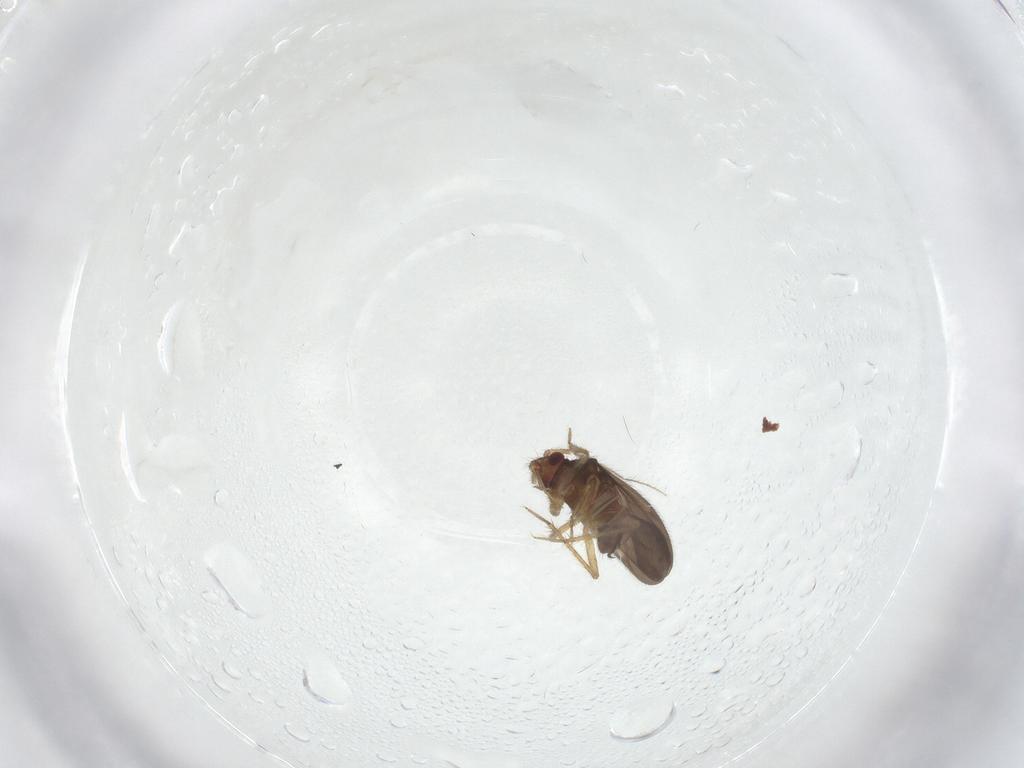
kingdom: Animalia
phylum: Arthropoda
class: Insecta
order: Hemiptera
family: Ceratocombidae
